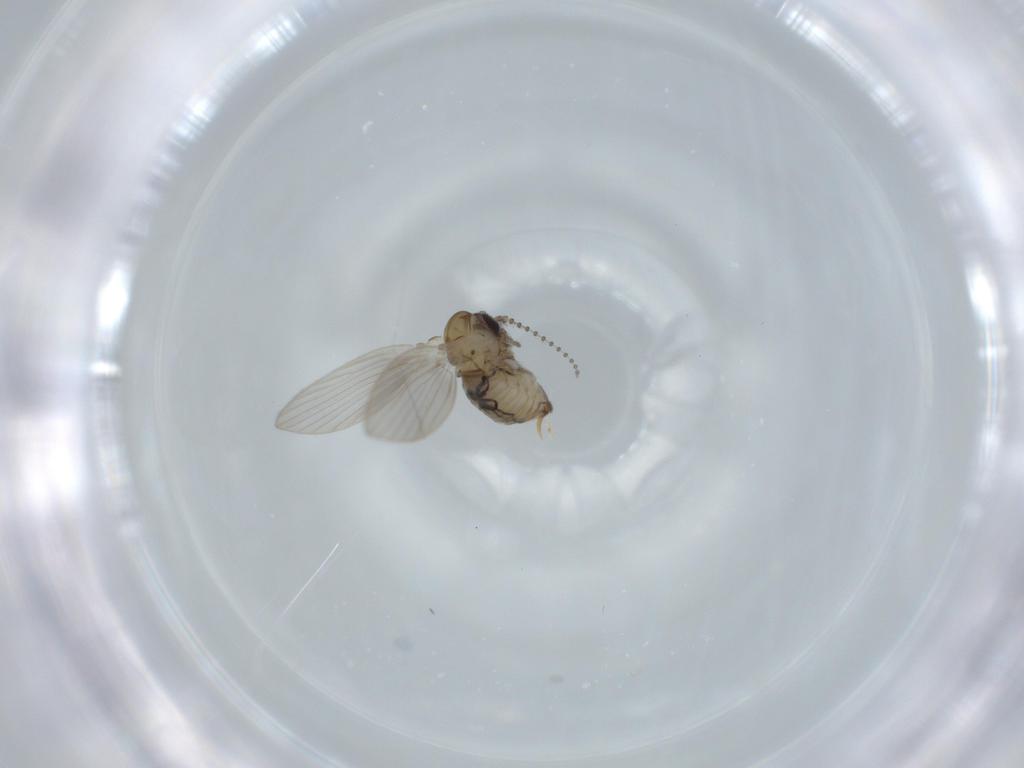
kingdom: Animalia
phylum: Arthropoda
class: Insecta
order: Diptera
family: Psychodidae
